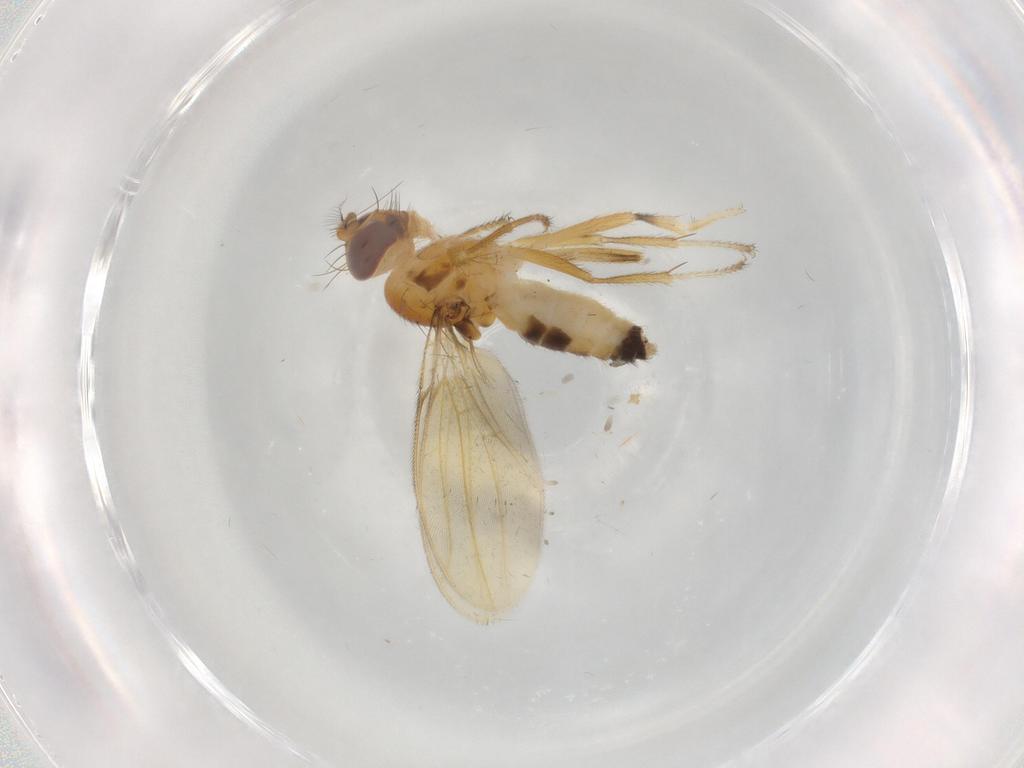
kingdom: Animalia
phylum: Arthropoda
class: Insecta
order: Diptera
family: Periscelididae
